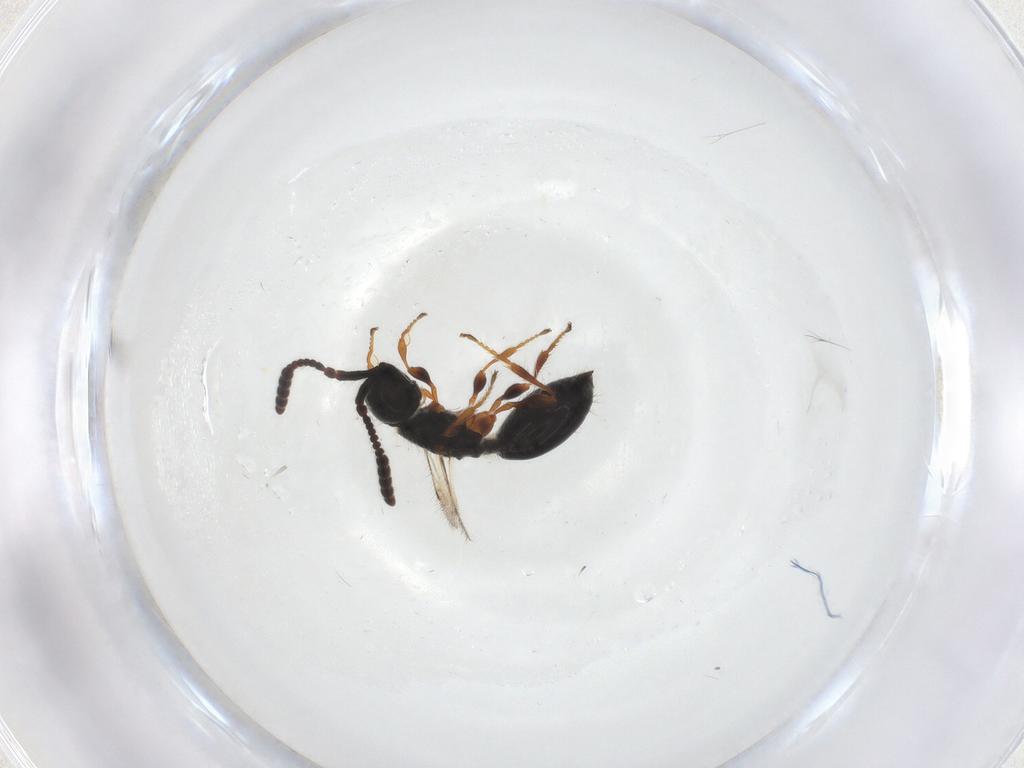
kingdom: Animalia
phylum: Arthropoda
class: Insecta
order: Hymenoptera
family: Diapriidae
